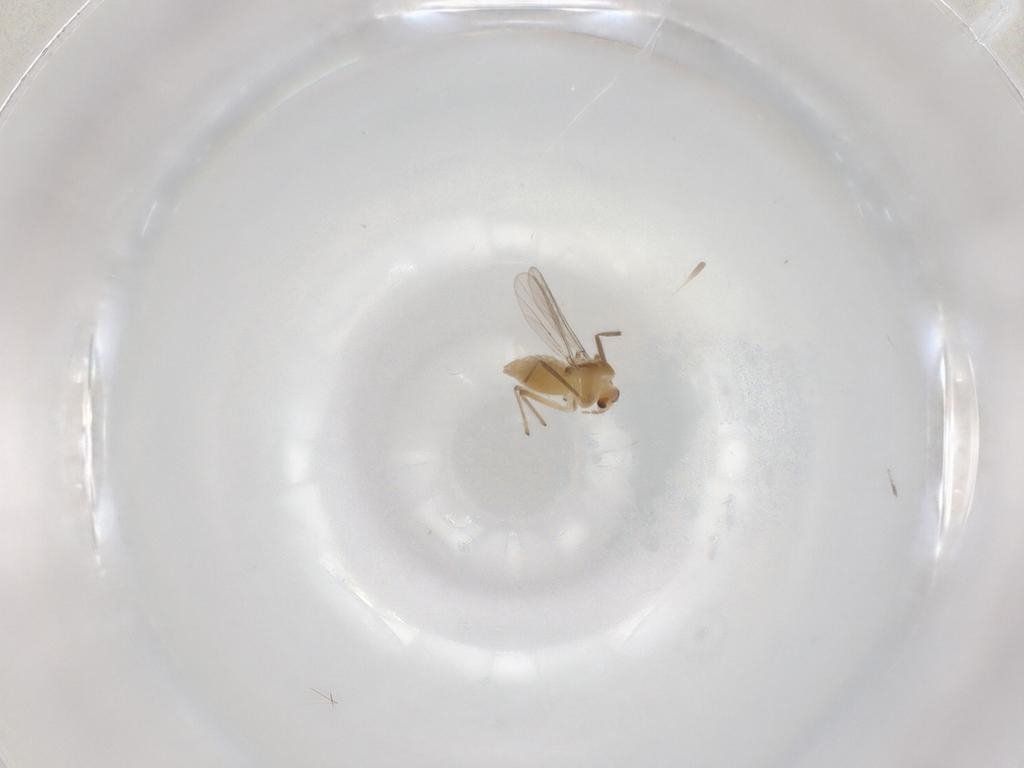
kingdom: Animalia
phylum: Arthropoda
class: Insecta
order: Diptera
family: Chironomidae
